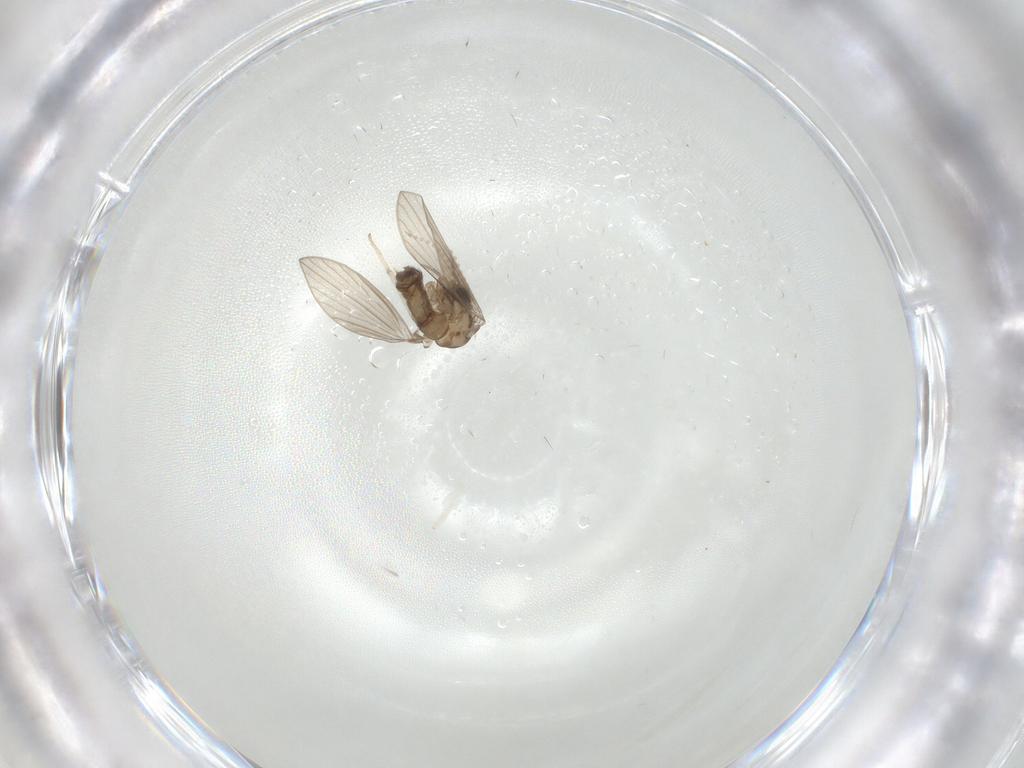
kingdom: Animalia
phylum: Arthropoda
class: Insecta
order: Diptera
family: Psychodidae
